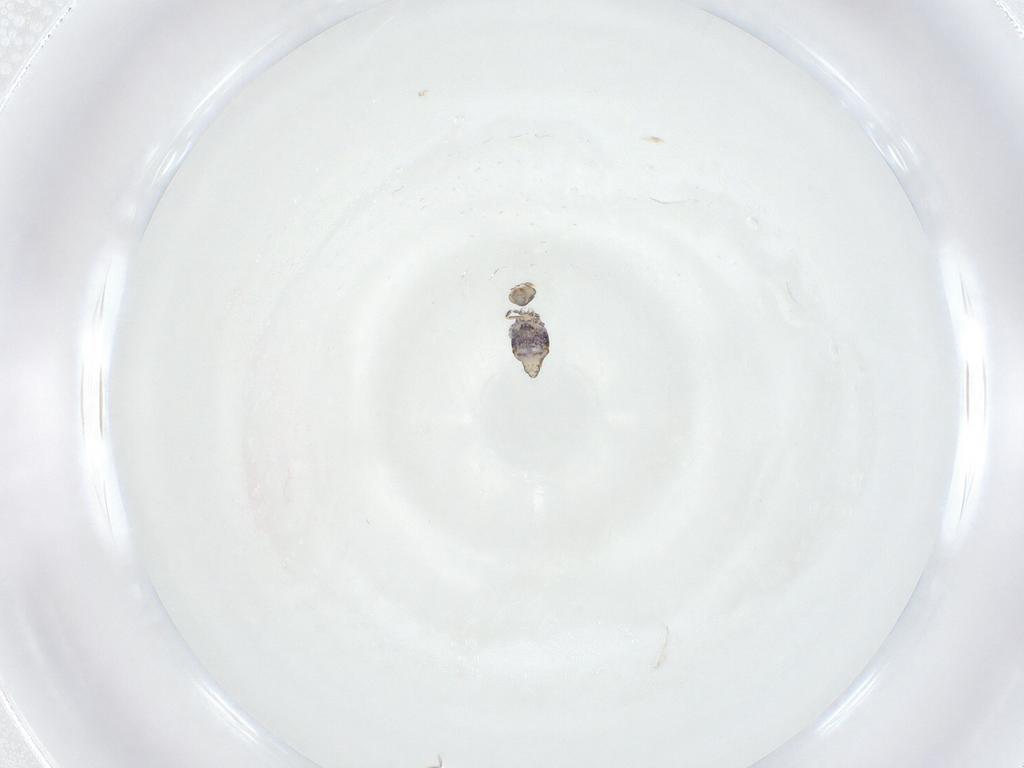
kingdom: Animalia
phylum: Arthropoda
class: Collembola
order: Symphypleona
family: Katiannidae
